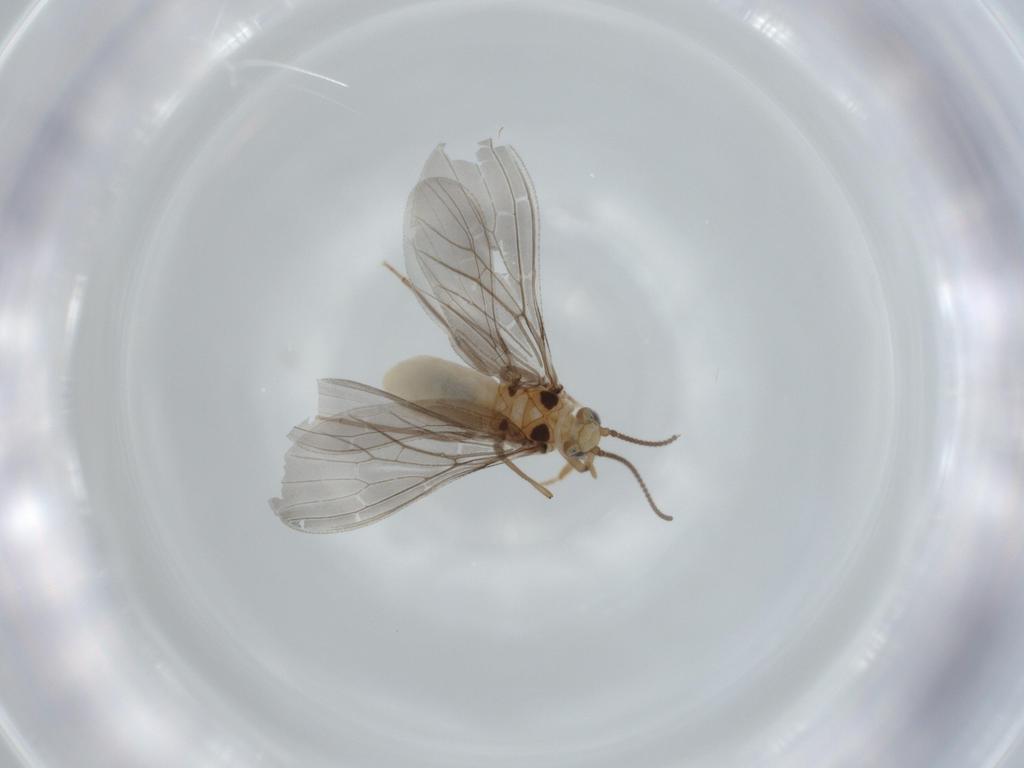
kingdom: Animalia
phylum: Arthropoda
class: Insecta
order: Neuroptera
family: Coniopterygidae
